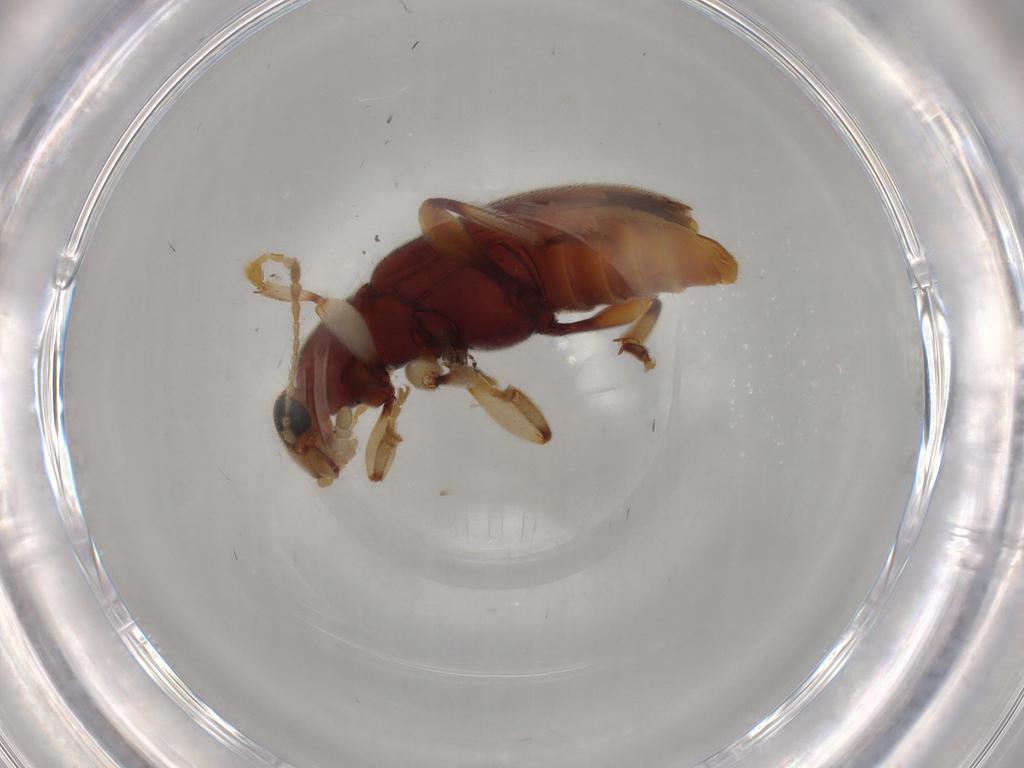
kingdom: Animalia
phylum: Arthropoda
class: Insecta
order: Coleoptera
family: Anthicidae
